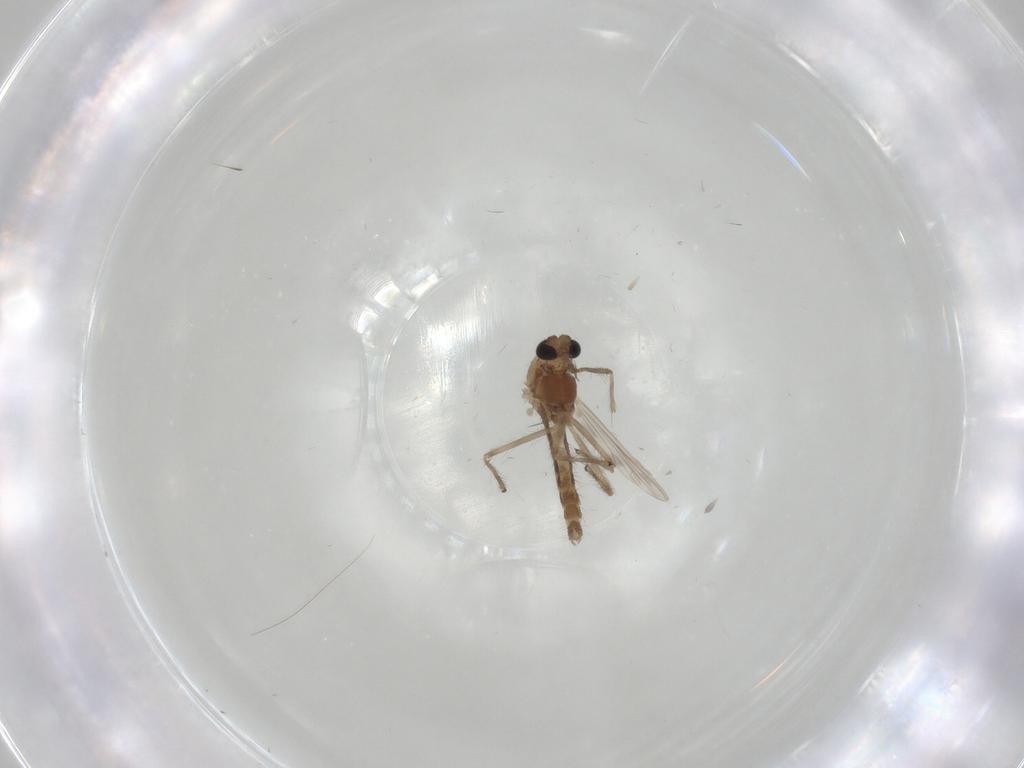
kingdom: Animalia
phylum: Arthropoda
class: Insecta
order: Diptera
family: Chironomidae
